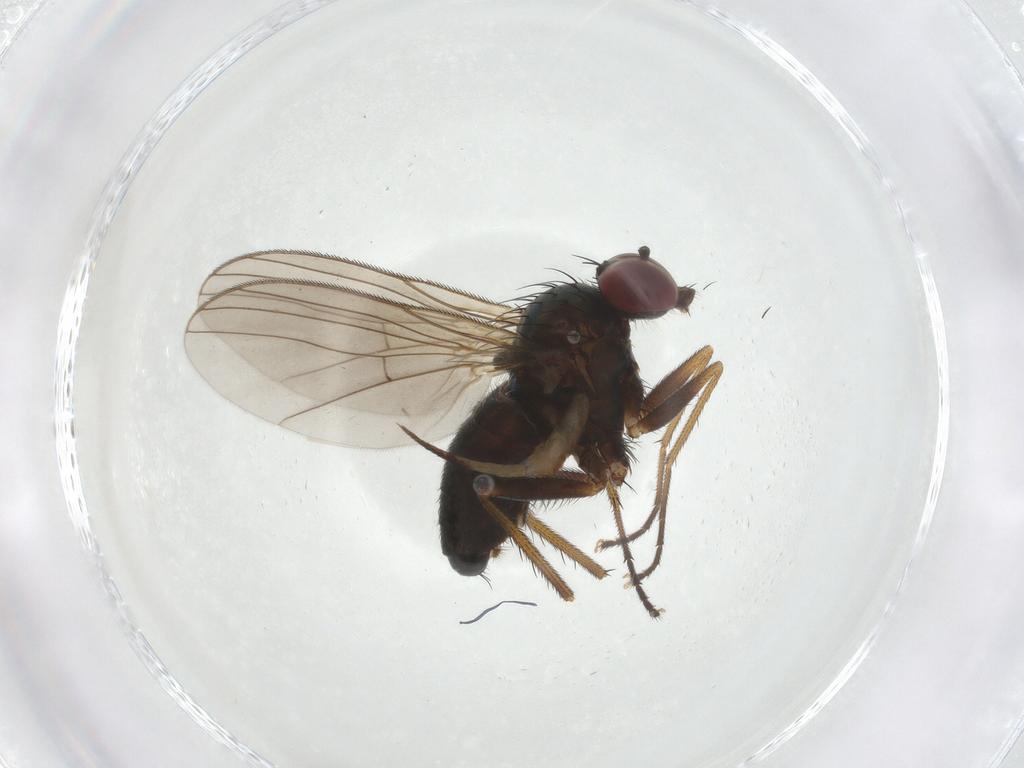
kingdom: Animalia
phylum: Arthropoda
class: Insecta
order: Diptera
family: Dolichopodidae
